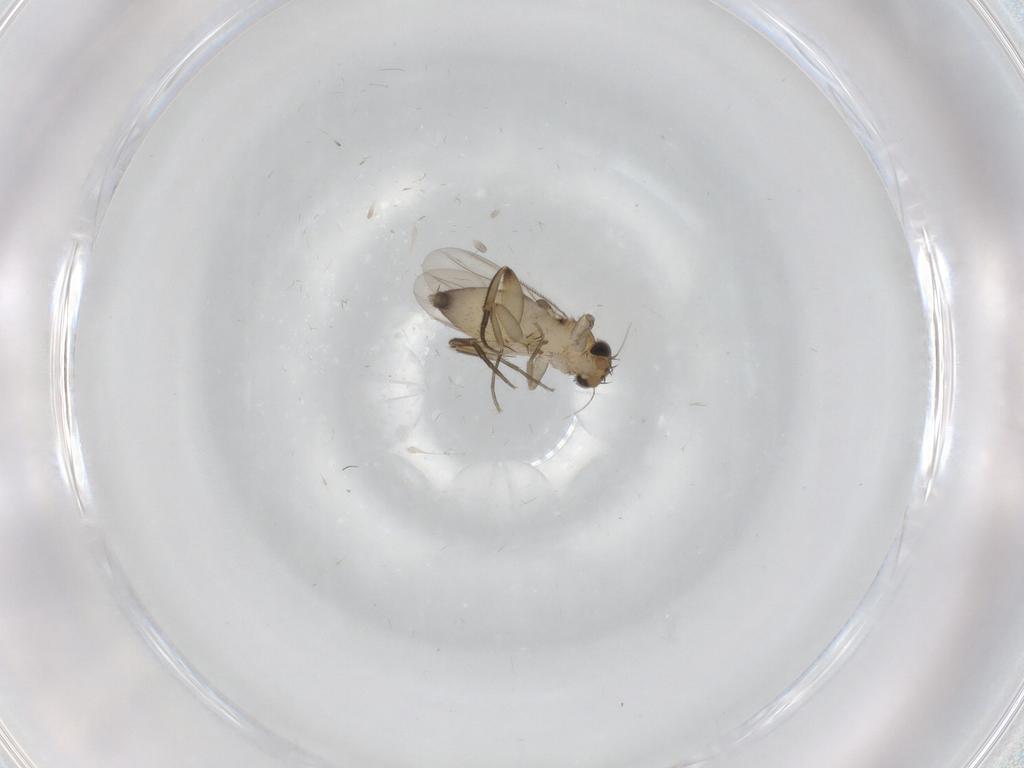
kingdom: Animalia
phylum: Arthropoda
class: Insecta
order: Diptera
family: Phoridae
